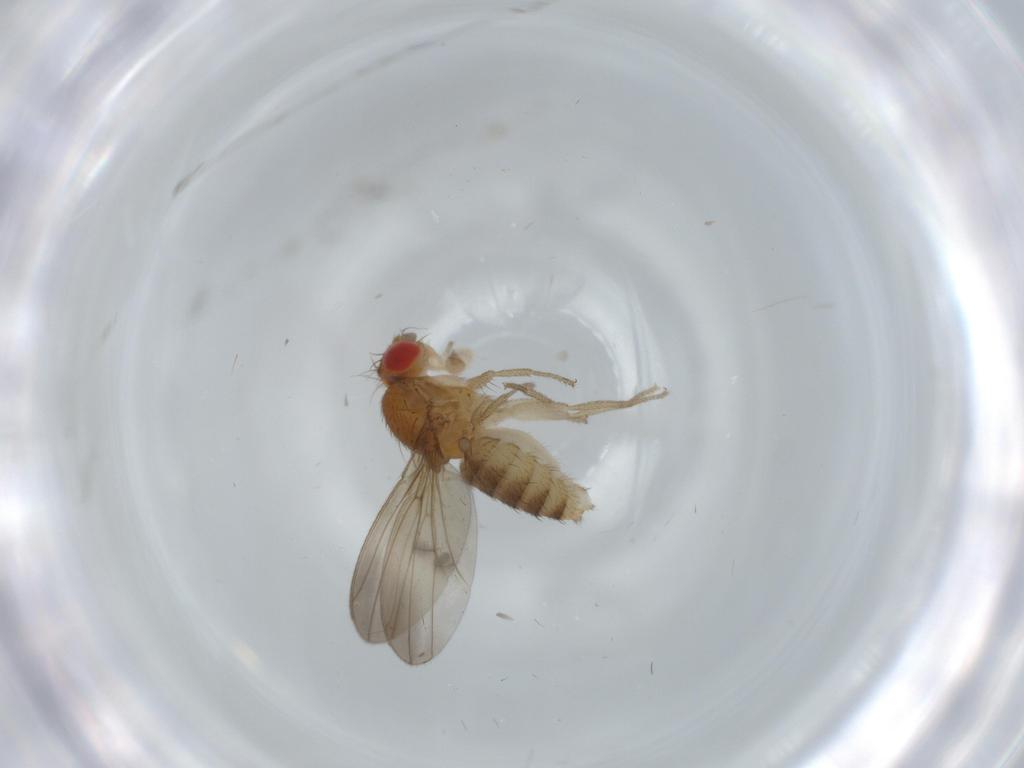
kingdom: Animalia
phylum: Arthropoda
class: Insecta
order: Diptera
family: Drosophilidae
